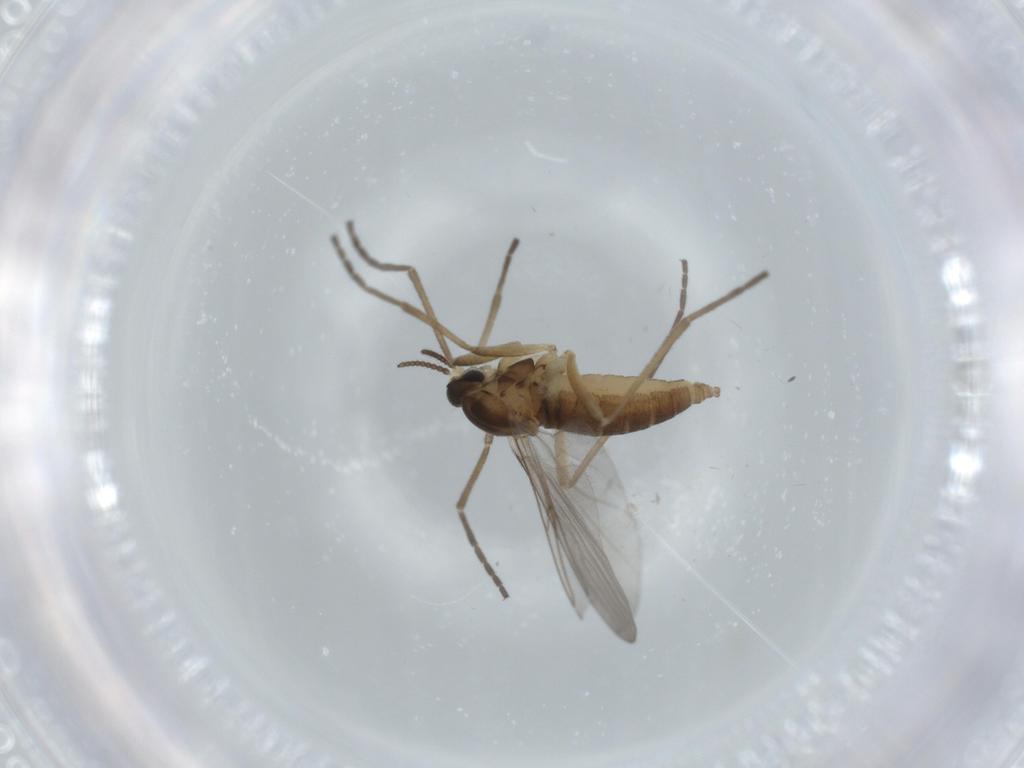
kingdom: Animalia
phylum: Arthropoda
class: Insecta
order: Diptera
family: Cecidomyiidae
